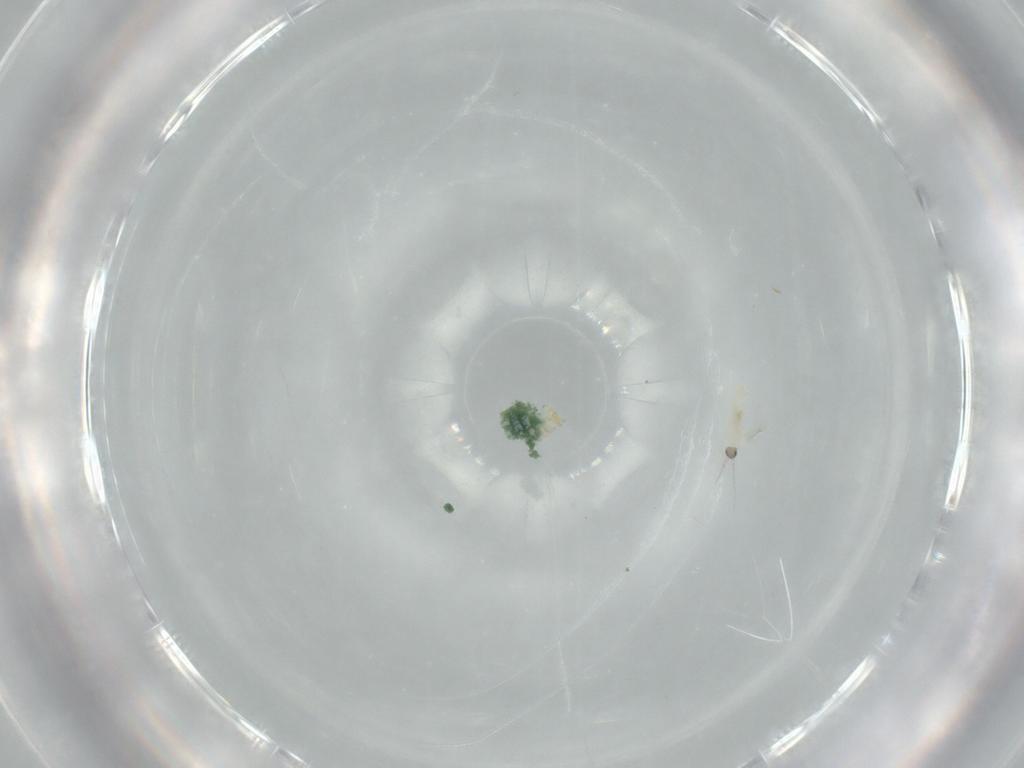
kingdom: Animalia
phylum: Arthropoda
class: Insecta
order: Diptera
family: Cecidomyiidae
